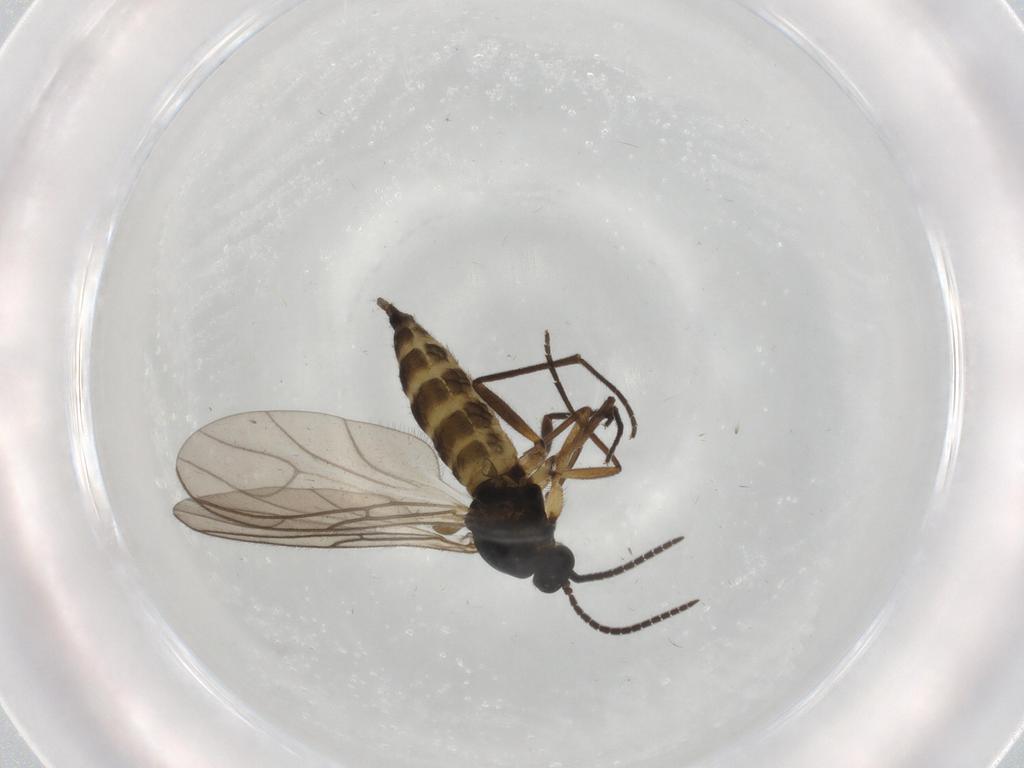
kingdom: Animalia
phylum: Arthropoda
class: Insecta
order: Diptera
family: Sciaridae
